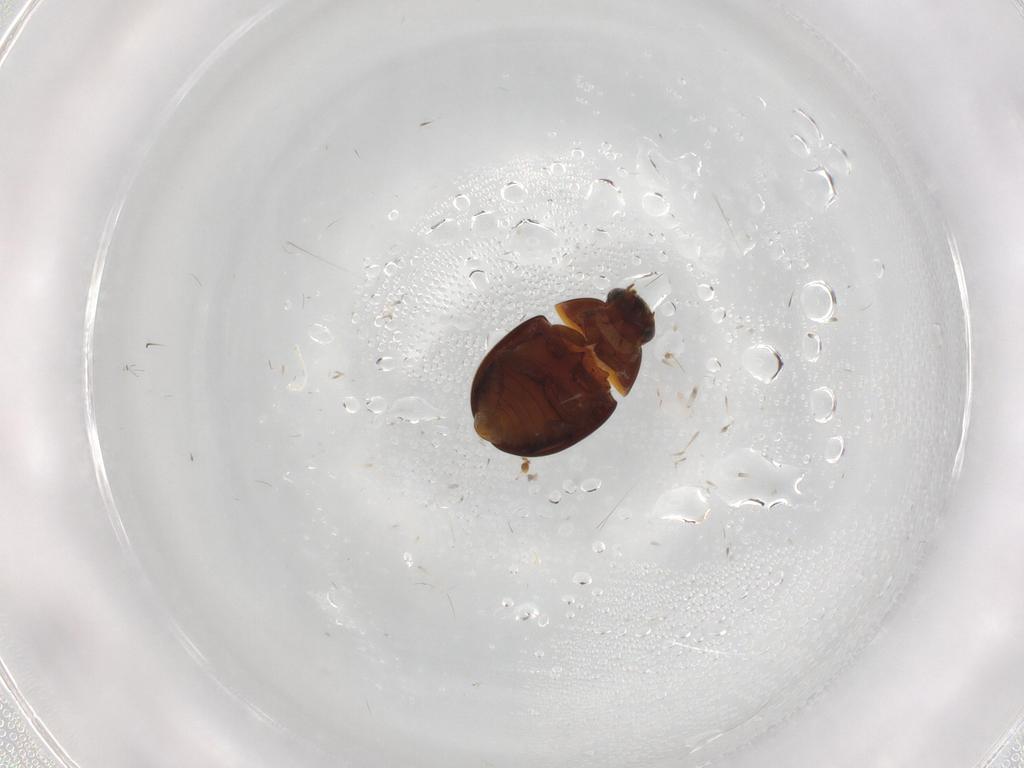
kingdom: Animalia
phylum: Arthropoda
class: Insecta
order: Coleoptera
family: Leiodidae
